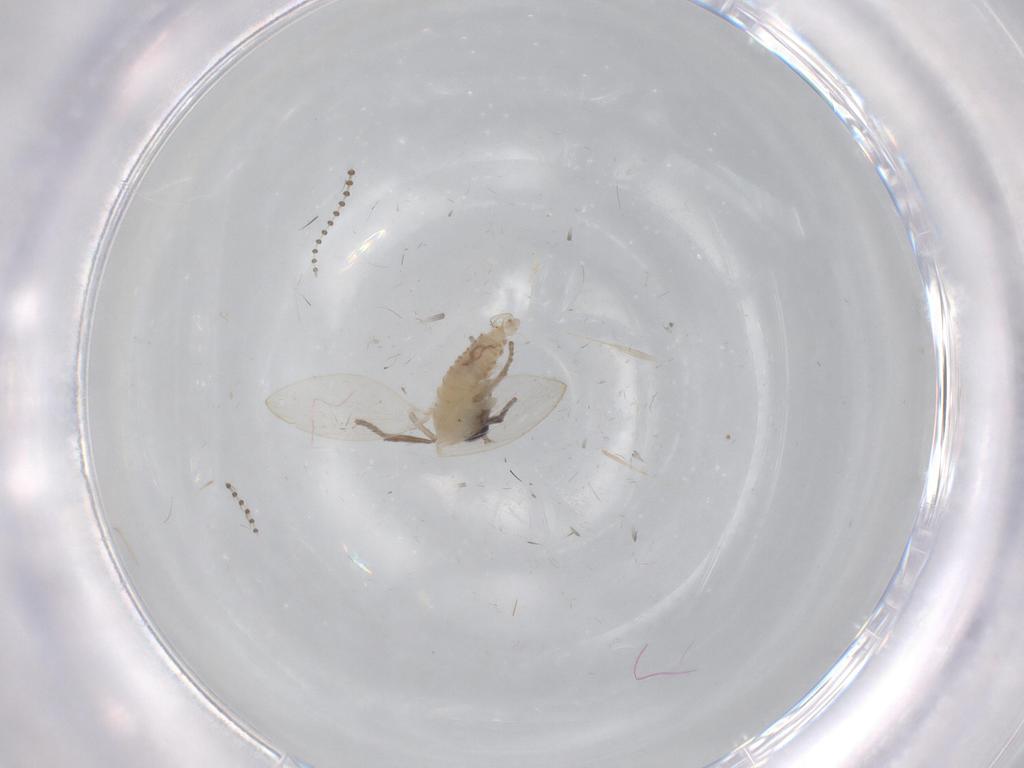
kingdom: Animalia
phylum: Arthropoda
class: Insecta
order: Diptera
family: Psychodidae
